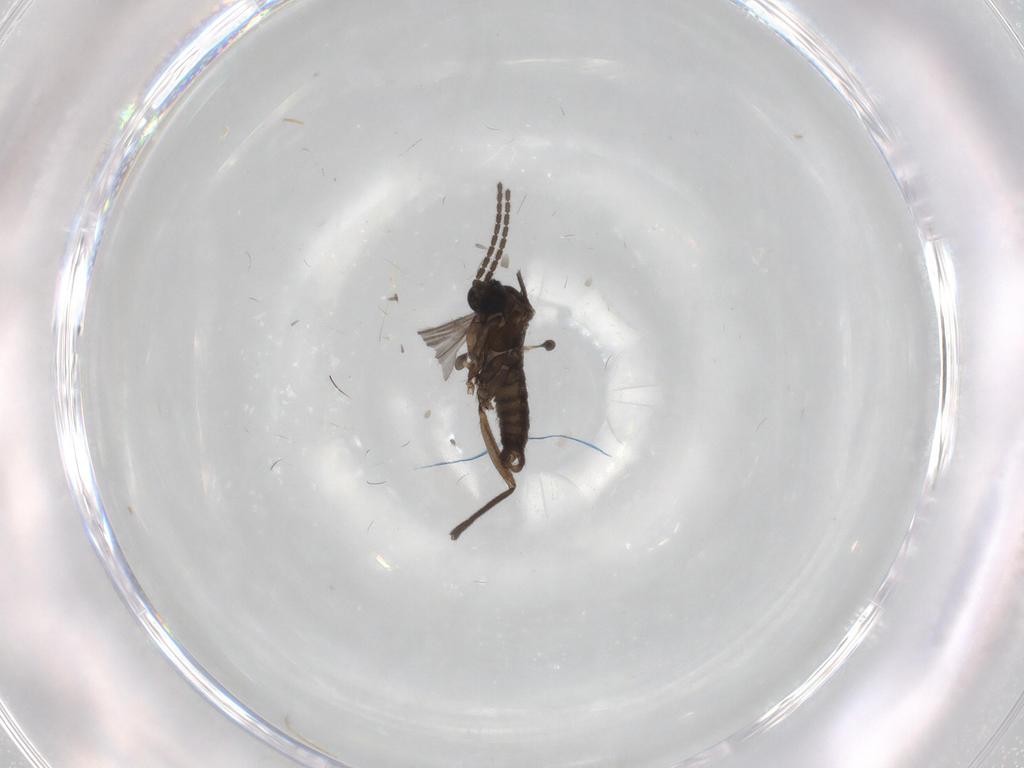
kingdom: Animalia
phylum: Arthropoda
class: Insecta
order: Diptera
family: Sciaridae
